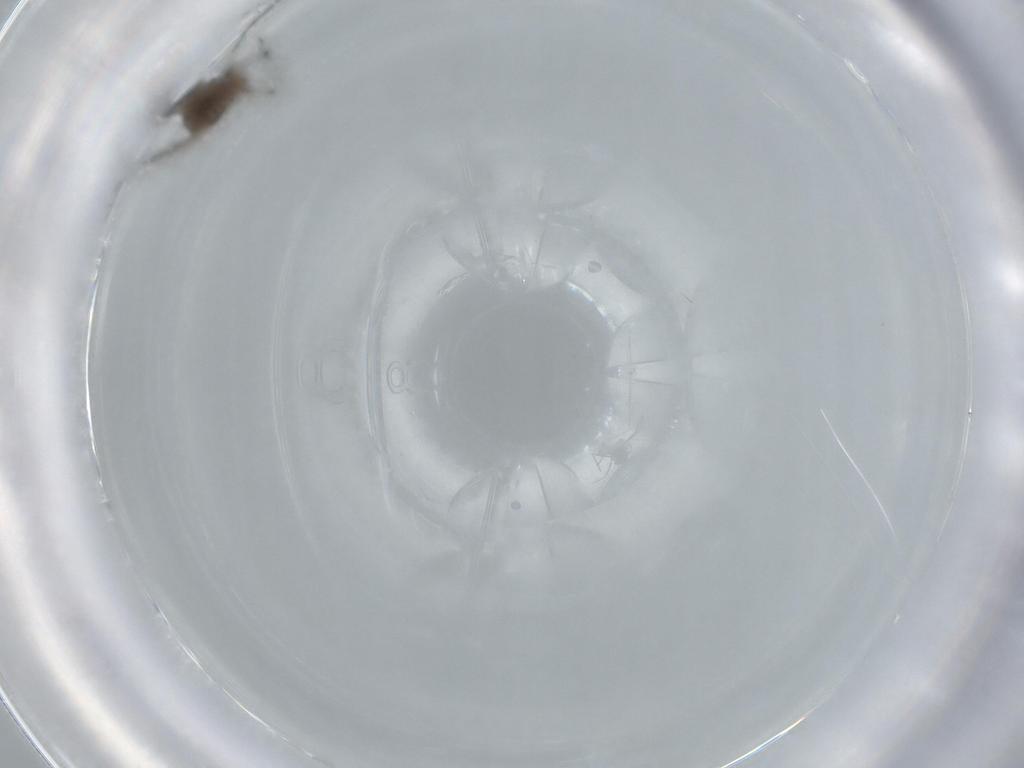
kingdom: Animalia
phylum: Arthropoda
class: Insecta
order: Diptera
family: Chironomidae
